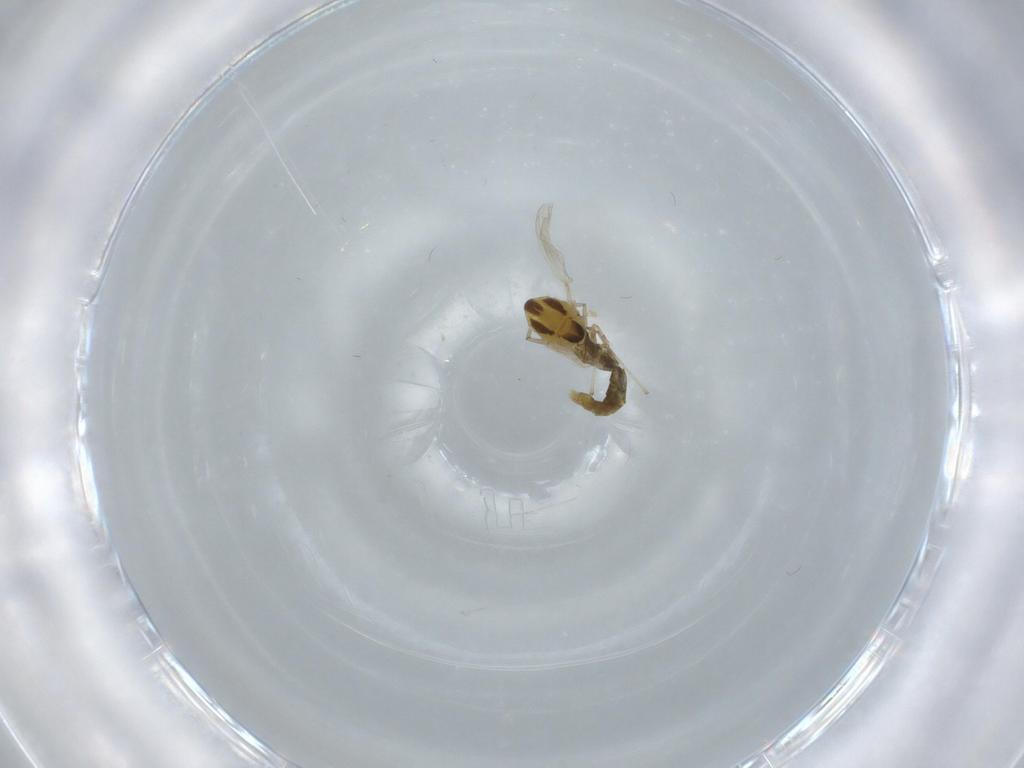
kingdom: Animalia
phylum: Arthropoda
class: Insecta
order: Diptera
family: Chironomidae
